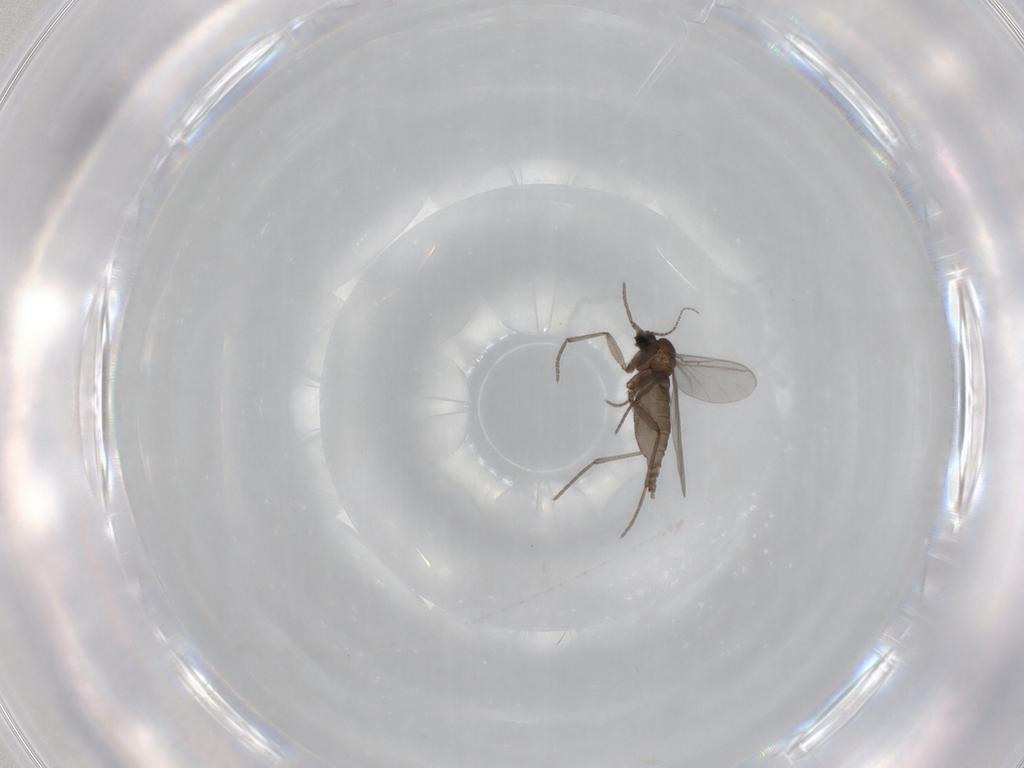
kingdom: Animalia
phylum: Arthropoda
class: Insecta
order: Diptera
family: Sciaridae
